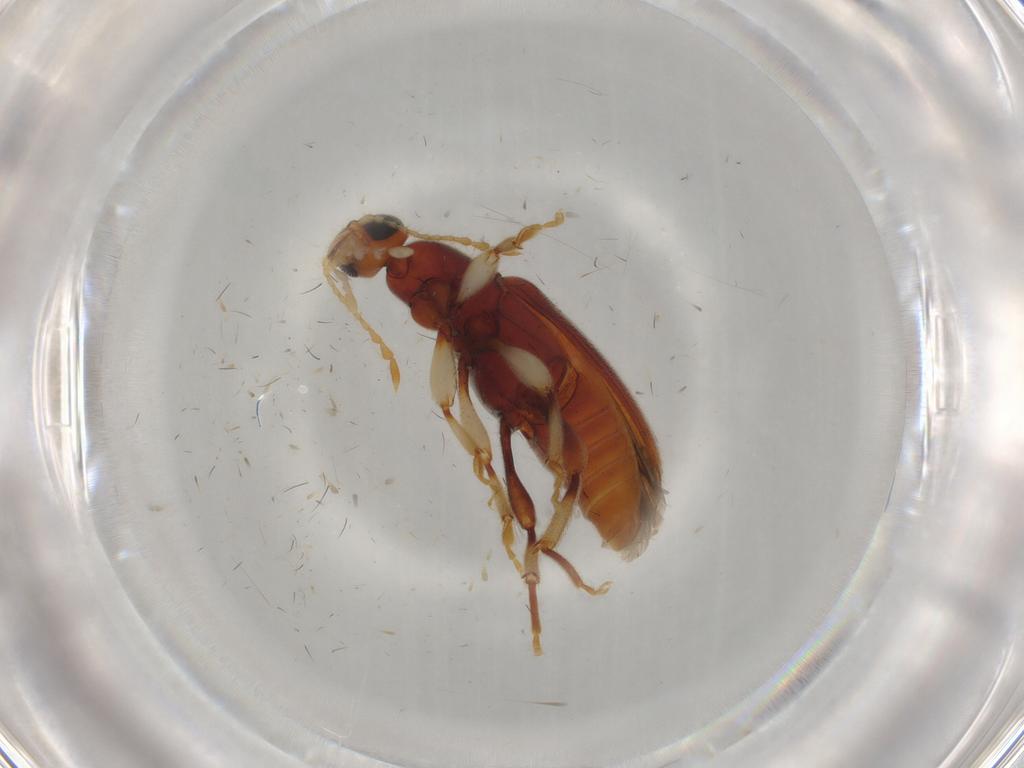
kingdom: Animalia
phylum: Arthropoda
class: Insecta
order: Coleoptera
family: Anthicidae
